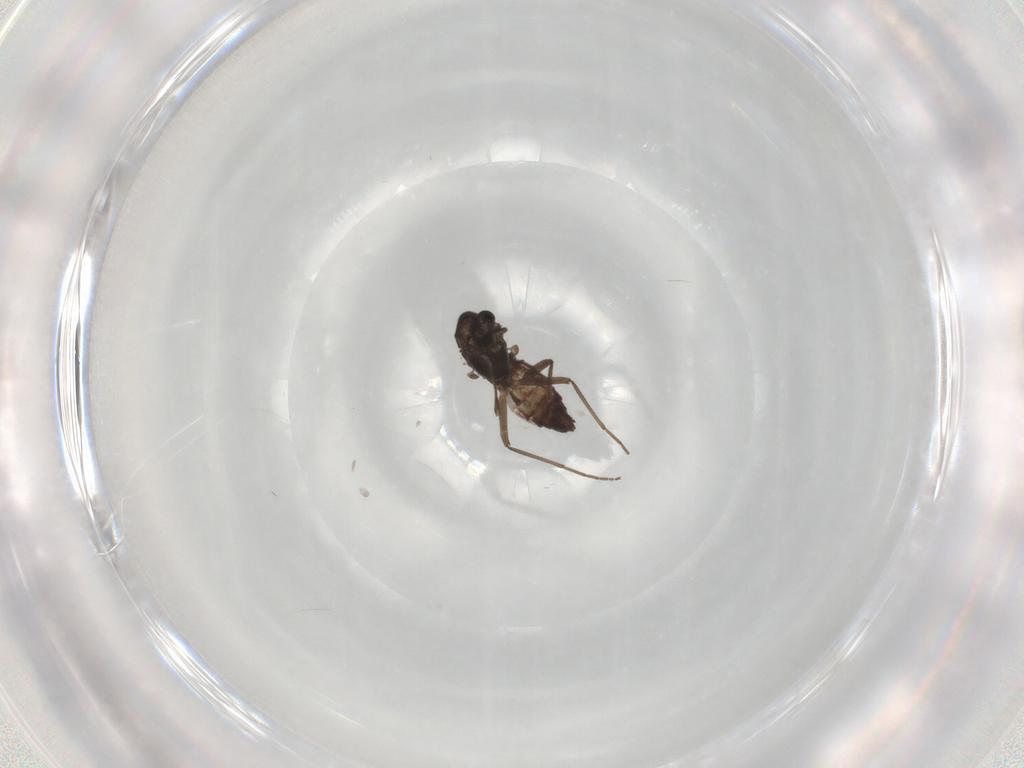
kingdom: Animalia
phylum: Arthropoda
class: Insecta
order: Diptera
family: Chironomidae
